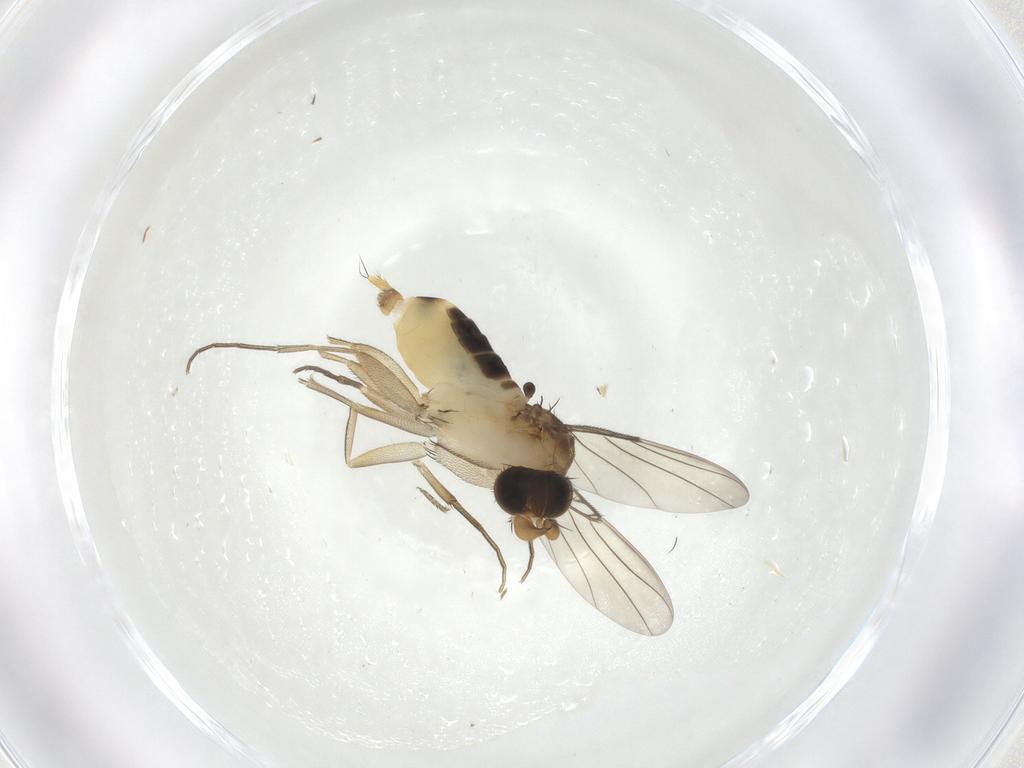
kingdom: Animalia
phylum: Arthropoda
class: Insecta
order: Diptera
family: Phoridae
